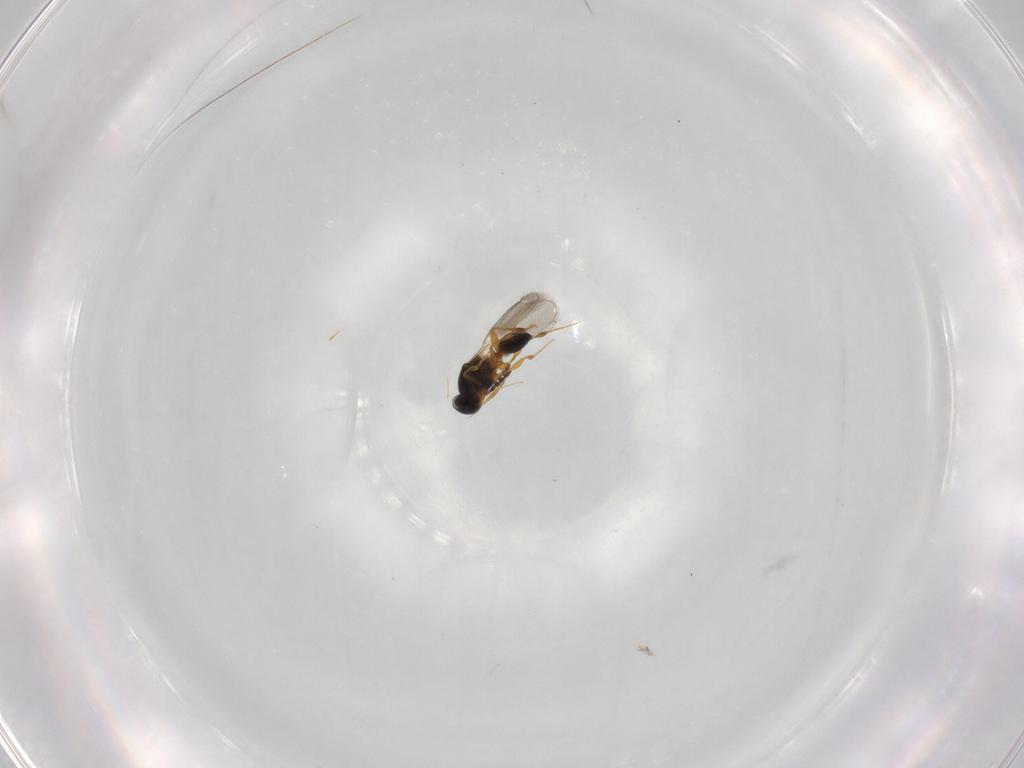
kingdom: Animalia
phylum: Arthropoda
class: Insecta
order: Hymenoptera
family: Platygastridae
